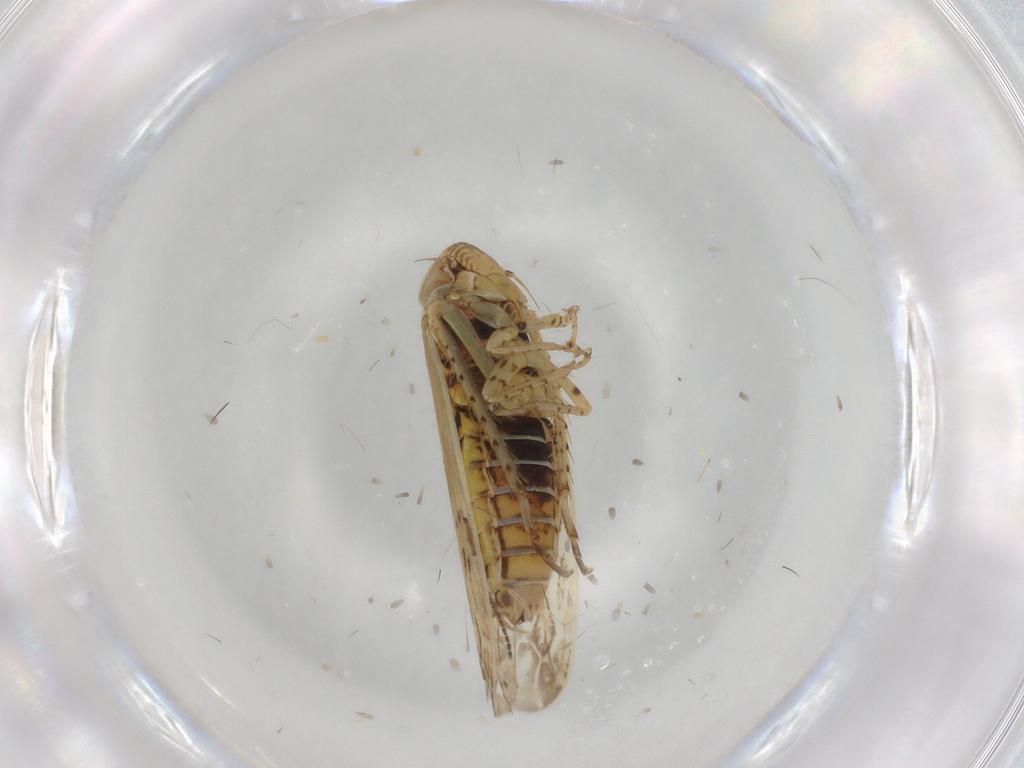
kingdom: Animalia
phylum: Arthropoda
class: Insecta
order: Hemiptera
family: Cicadellidae
